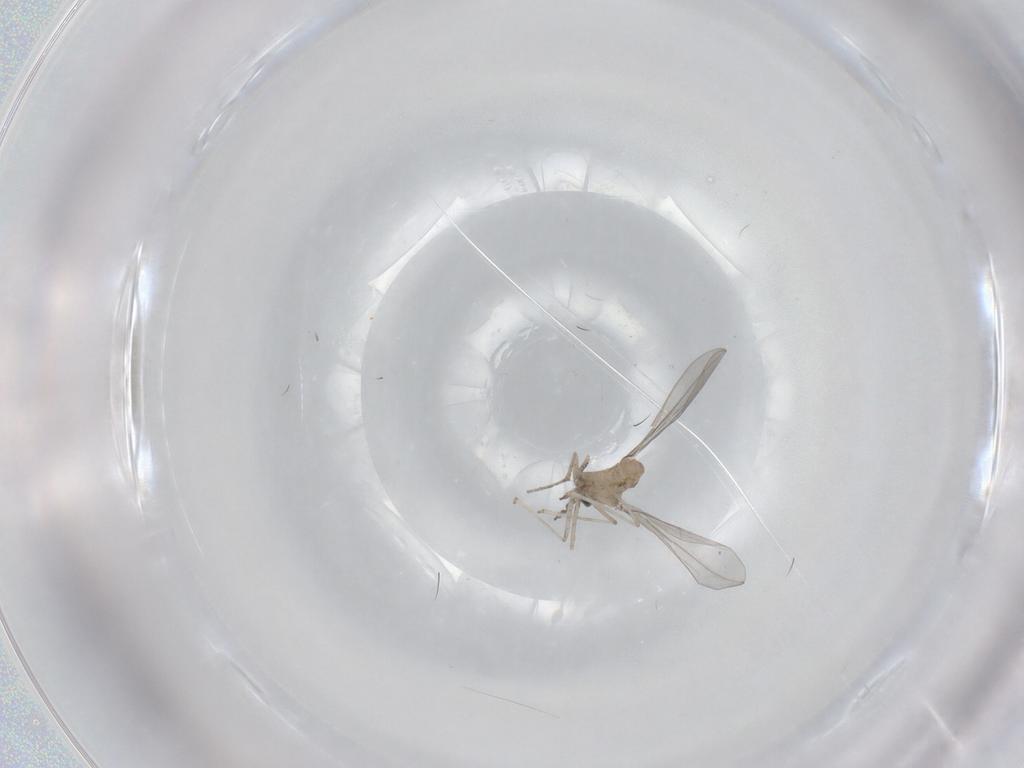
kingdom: Animalia
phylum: Arthropoda
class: Insecta
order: Diptera
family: Cecidomyiidae
